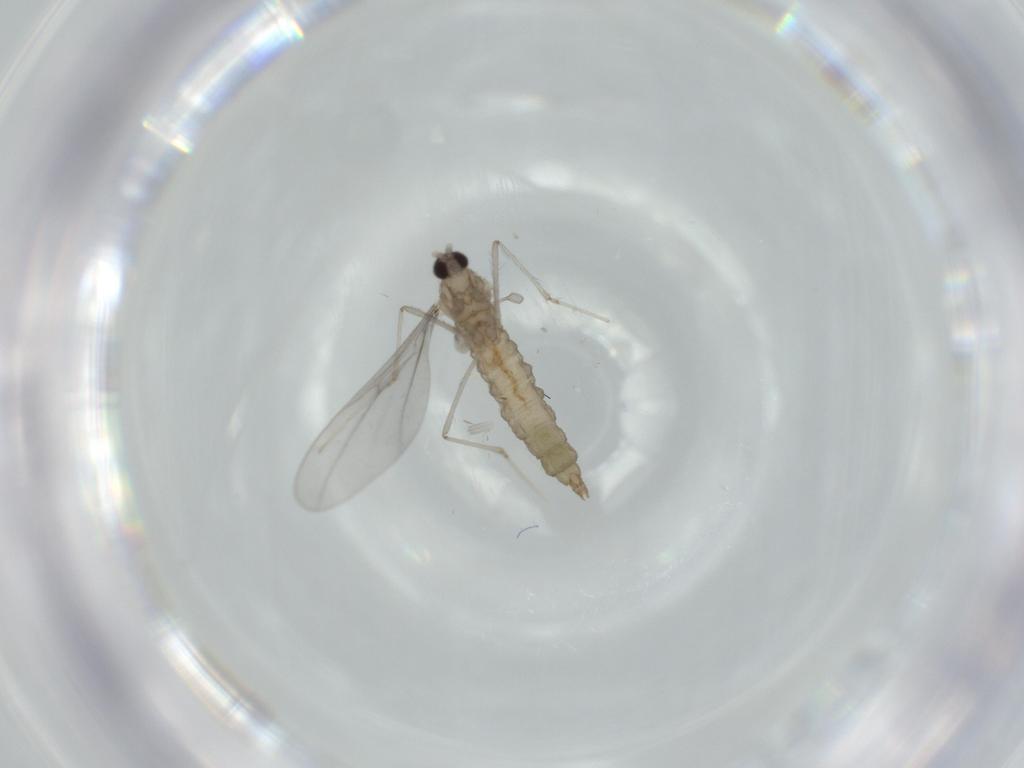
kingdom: Animalia
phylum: Arthropoda
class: Insecta
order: Diptera
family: Cecidomyiidae
